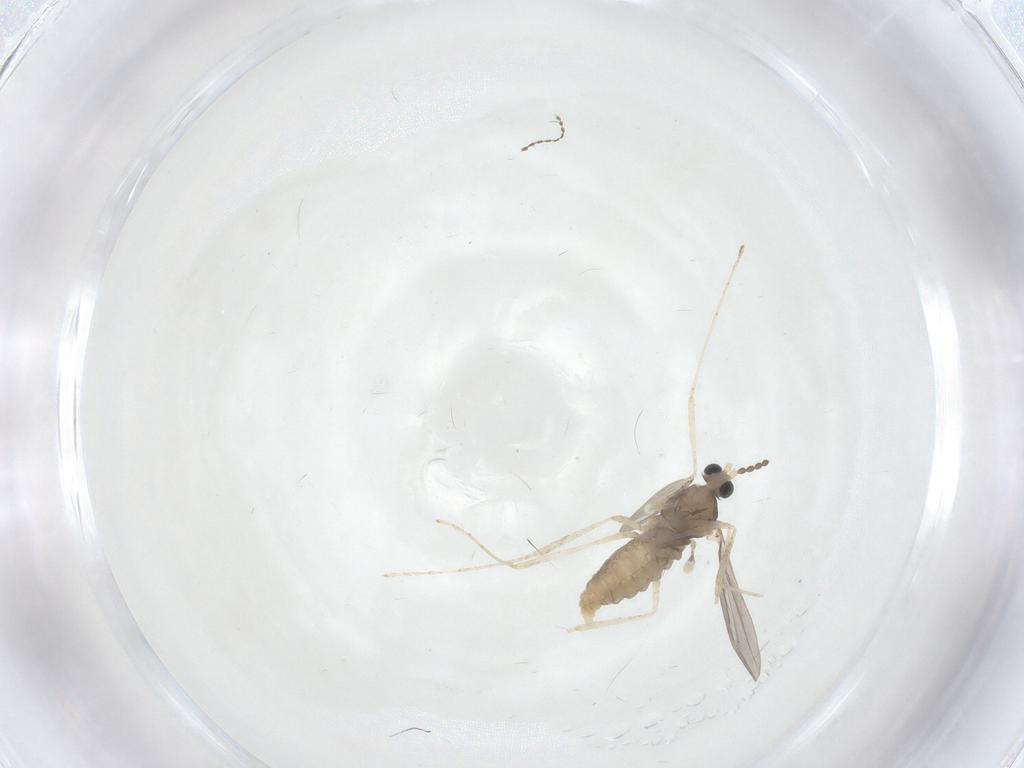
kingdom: Animalia
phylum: Arthropoda
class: Insecta
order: Diptera
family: Cecidomyiidae
